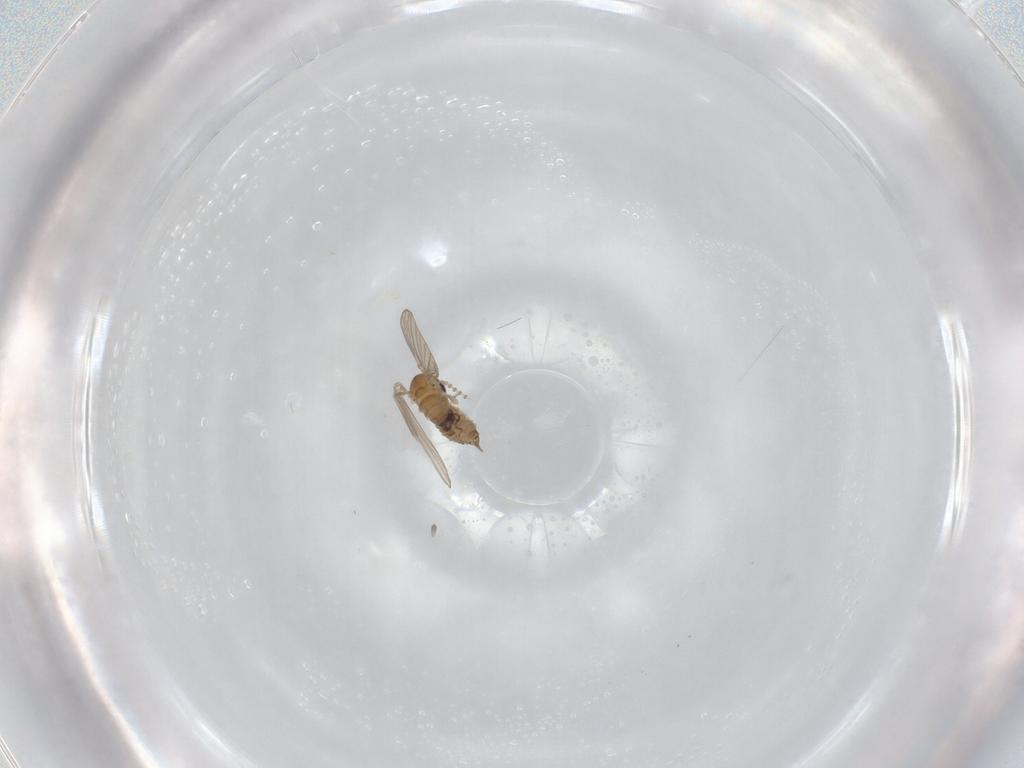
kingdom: Animalia
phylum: Arthropoda
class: Insecta
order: Diptera
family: Psychodidae
